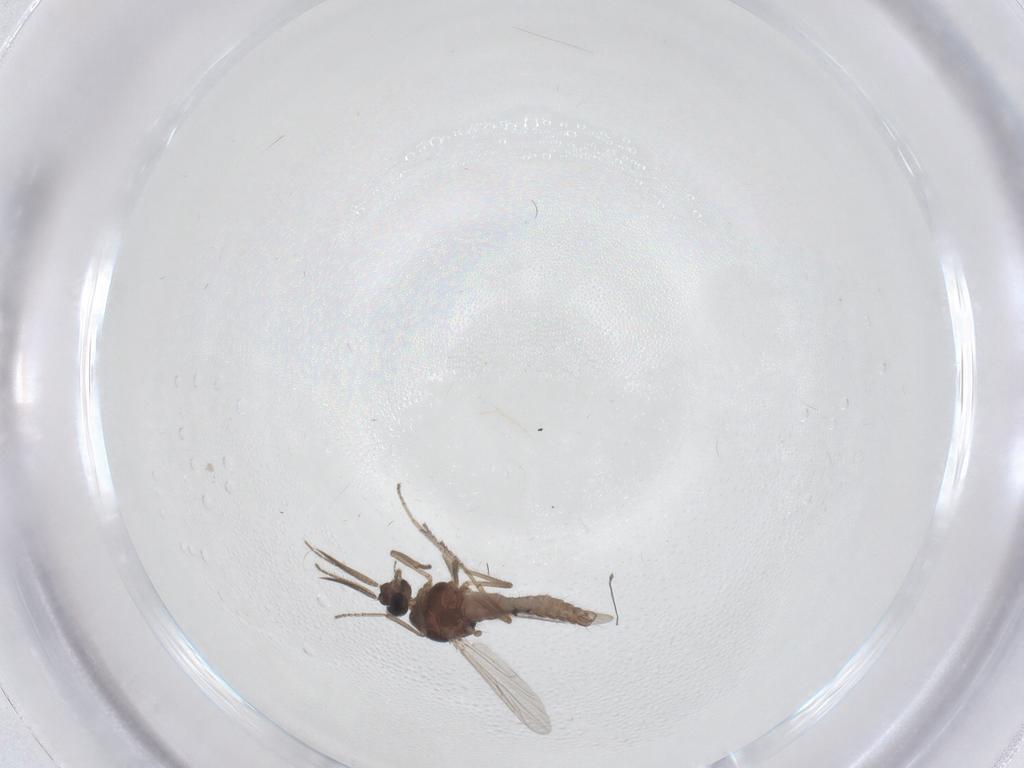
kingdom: Animalia
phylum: Arthropoda
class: Insecta
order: Diptera
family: Ceratopogonidae
